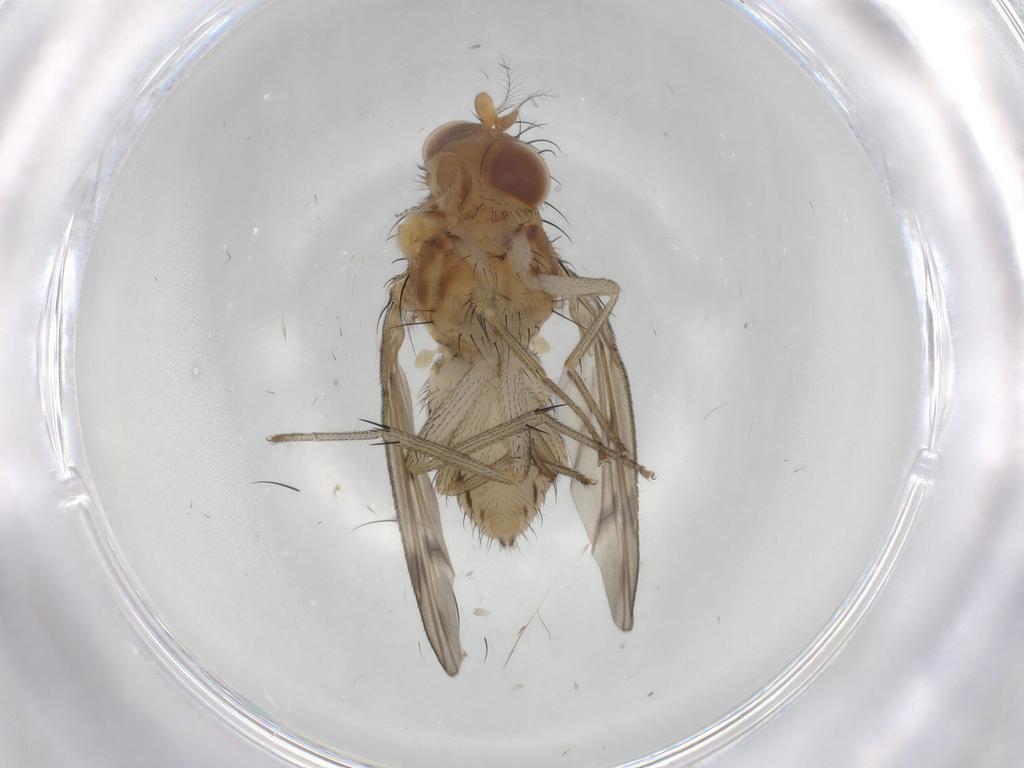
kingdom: Animalia
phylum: Arthropoda
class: Insecta
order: Diptera
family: Cecidomyiidae
